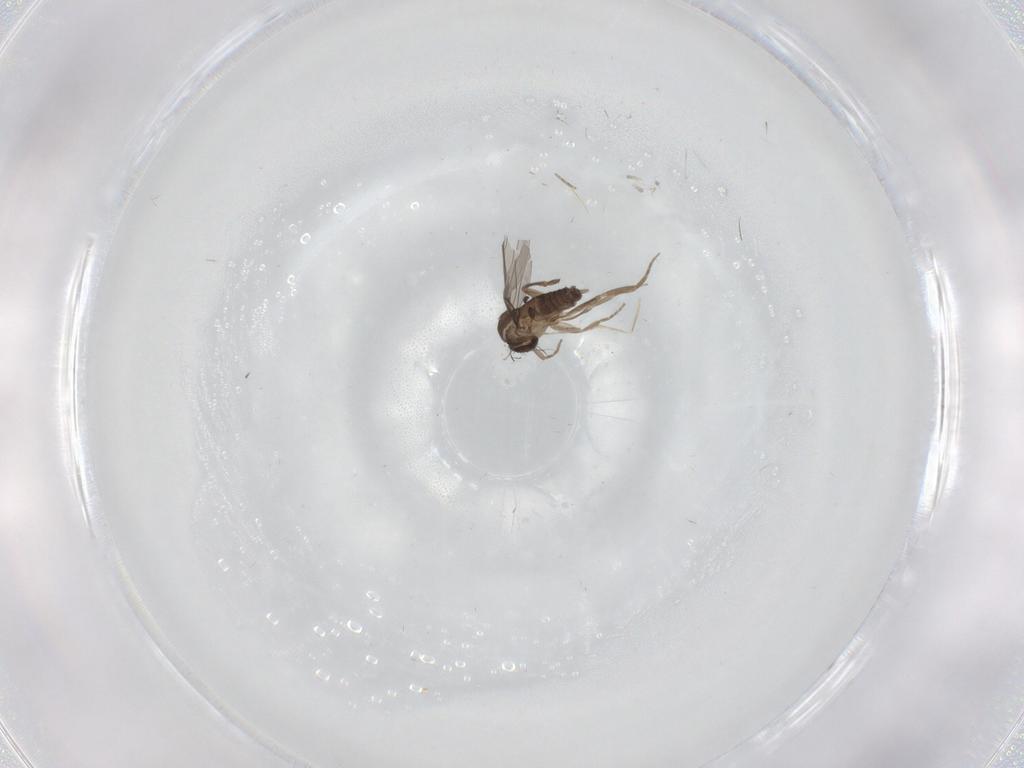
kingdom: Animalia
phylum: Arthropoda
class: Insecta
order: Diptera
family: Phoridae
